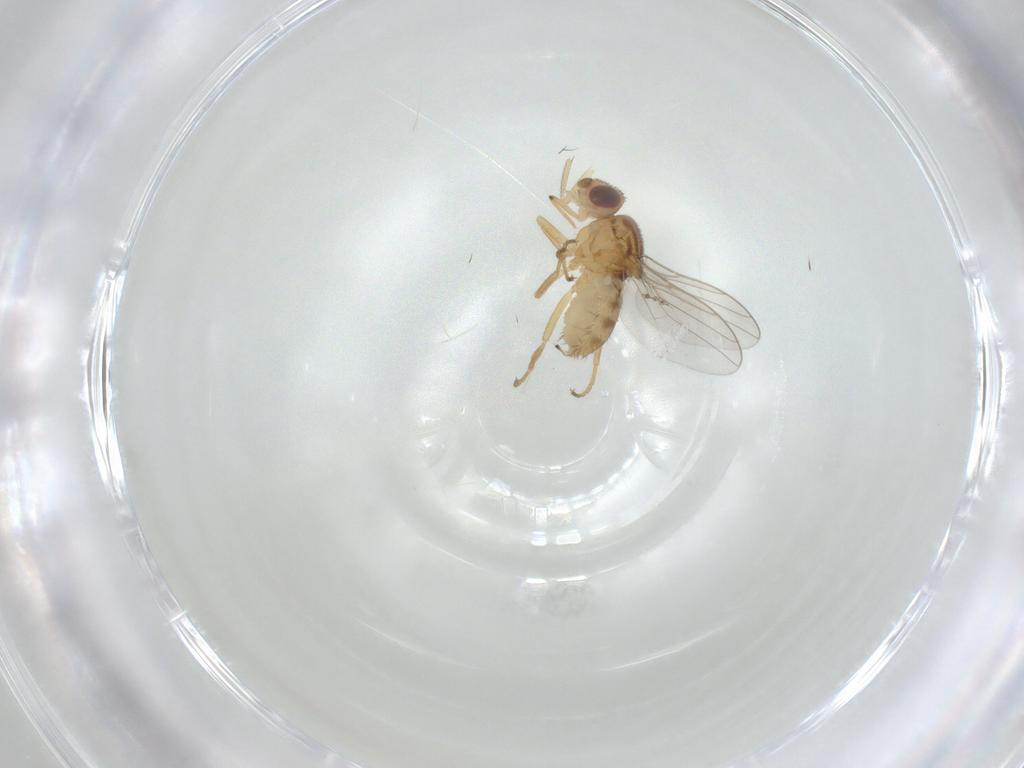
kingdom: Animalia
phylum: Arthropoda
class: Insecta
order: Diptera
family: Chloropidae
